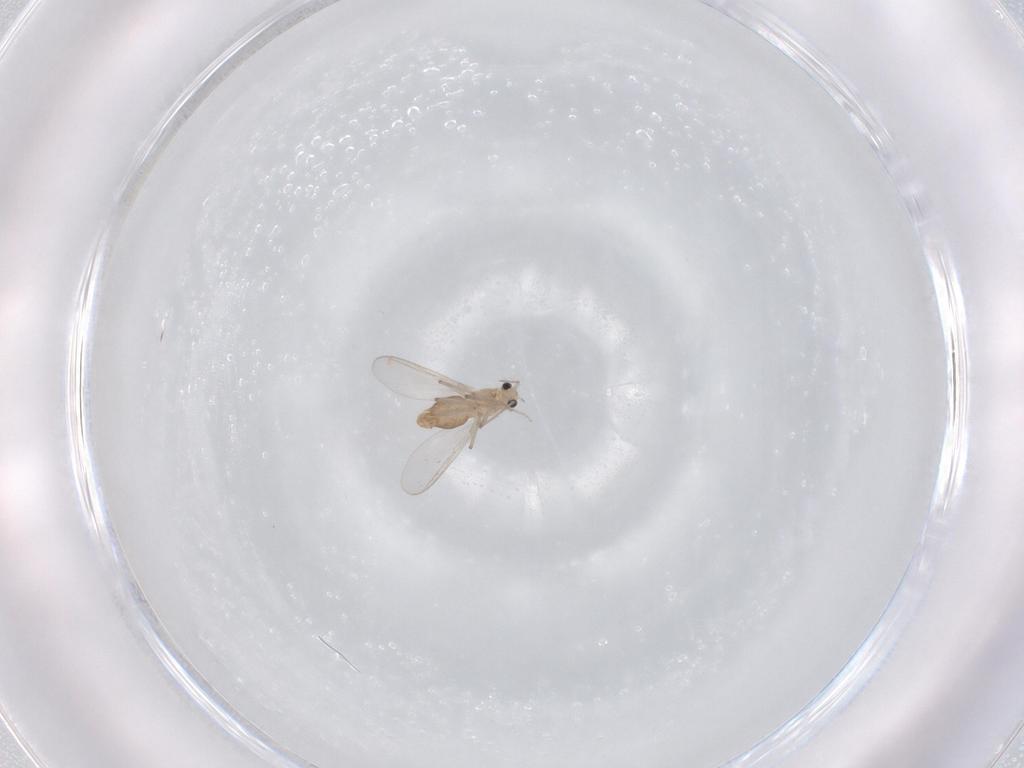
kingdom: Animalia
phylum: Arthropoda
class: Insecta
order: Diptera
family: Chironomidae
